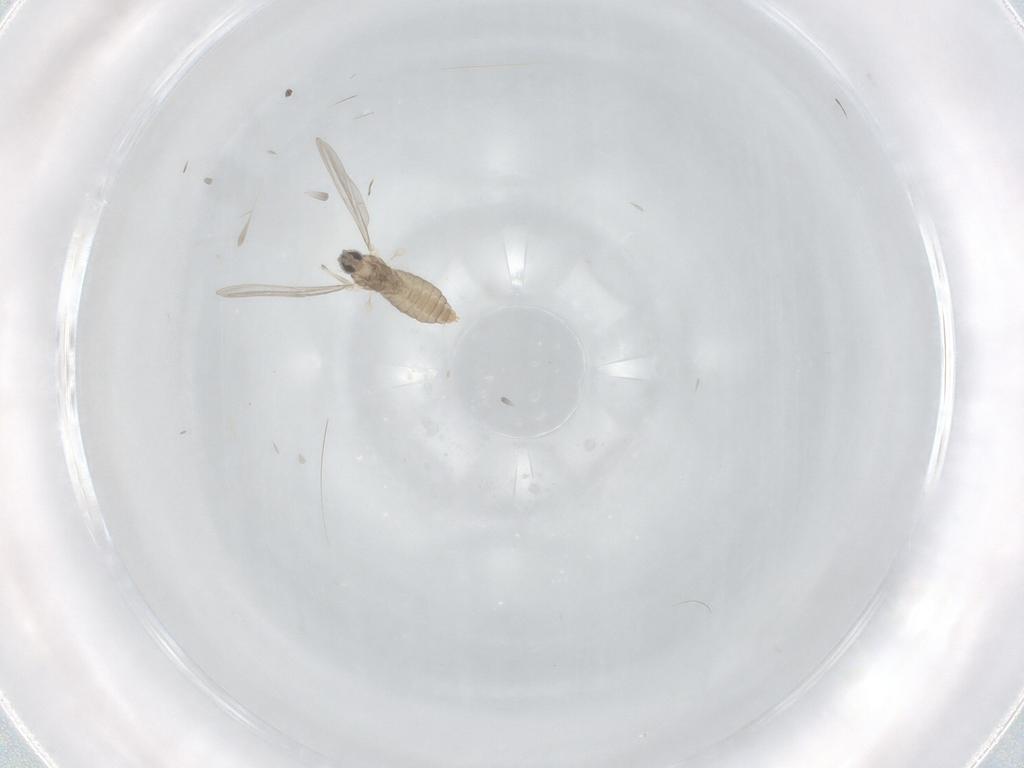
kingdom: Animalia
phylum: Arthropoda
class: Insecta
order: Diptera
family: Cecidomyiidae
